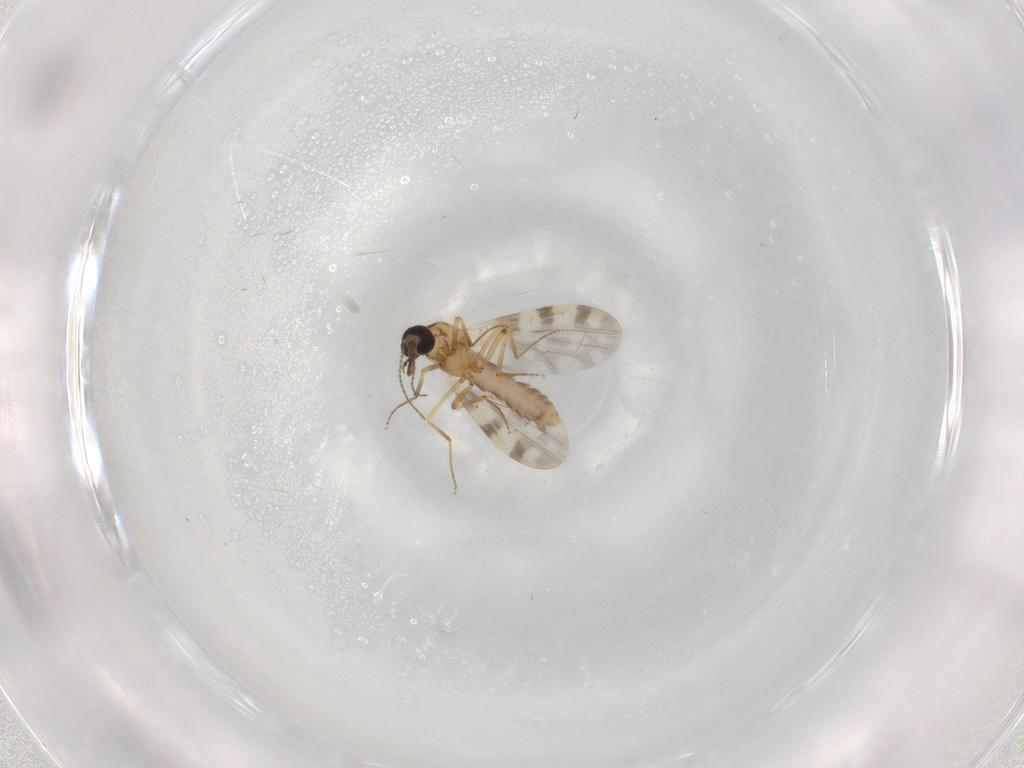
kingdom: Animalia
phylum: Arthropoda
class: Insecta
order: Diptera
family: Ceratopogonidae
